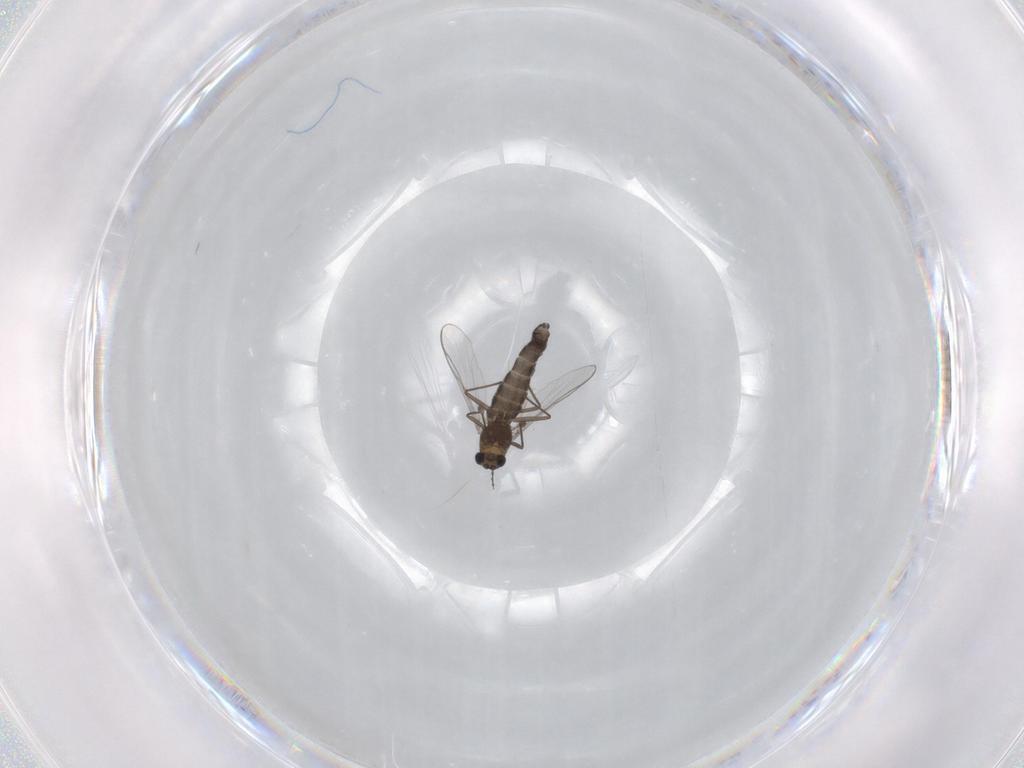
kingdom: Animalia
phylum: Arthropoda
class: Insecta
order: Diptera
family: Chironomidae
